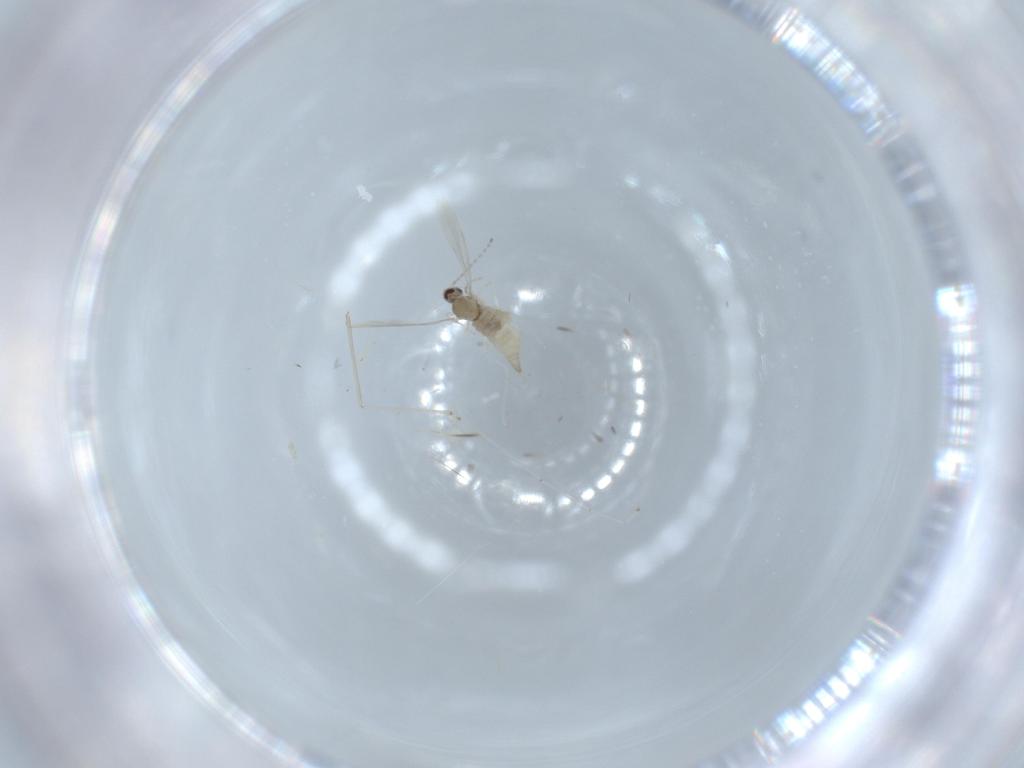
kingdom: Animalia
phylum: Arthropoda
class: Insecta
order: Diptera
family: Cecidomyiidae
